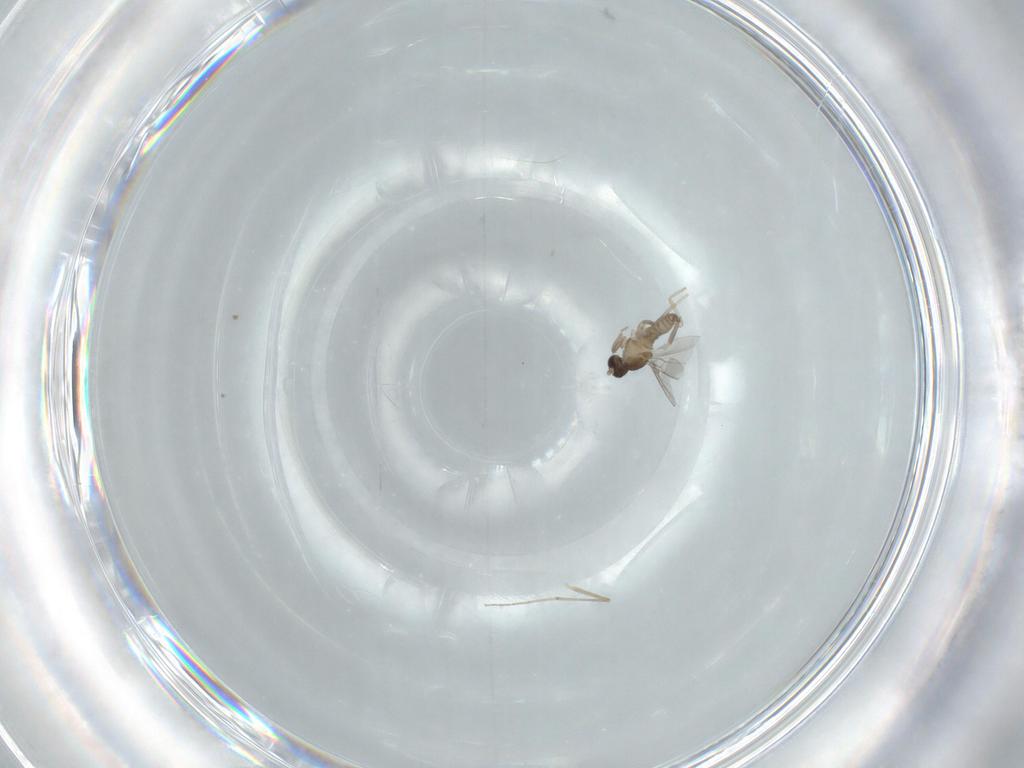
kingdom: Animalia
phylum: Arthropoda
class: Insecta
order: Diptera
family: Cecidomyiidae
